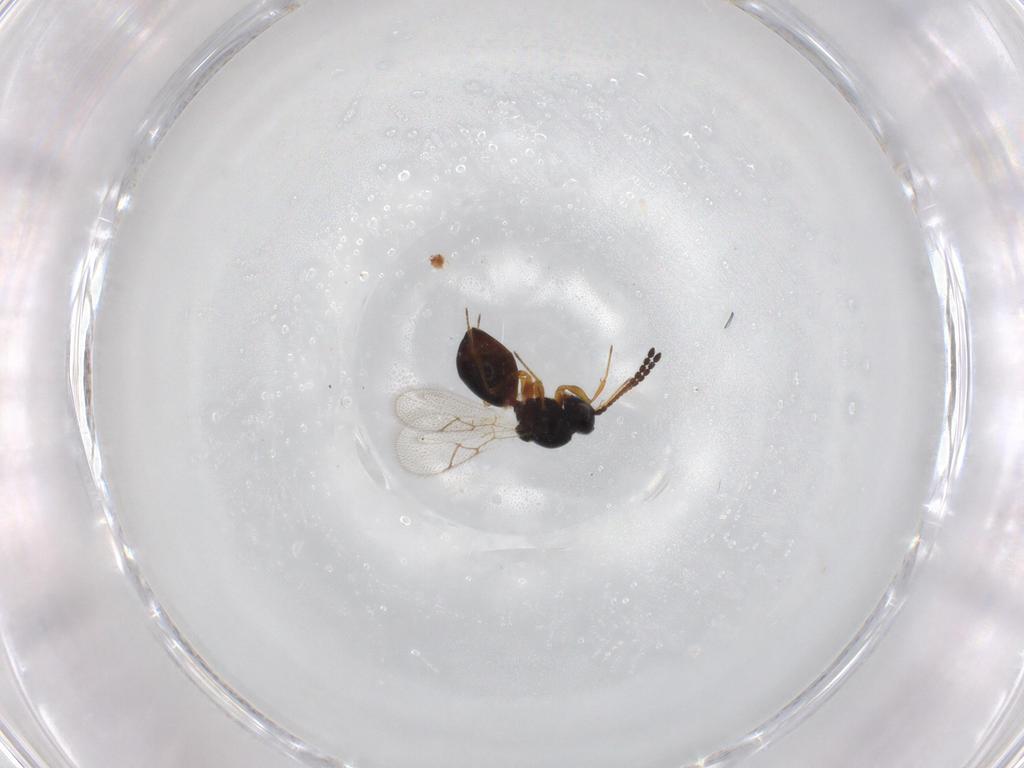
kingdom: Animalia
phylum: Arthropoda
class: Insecta
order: Hymenoptera
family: Figitidae
